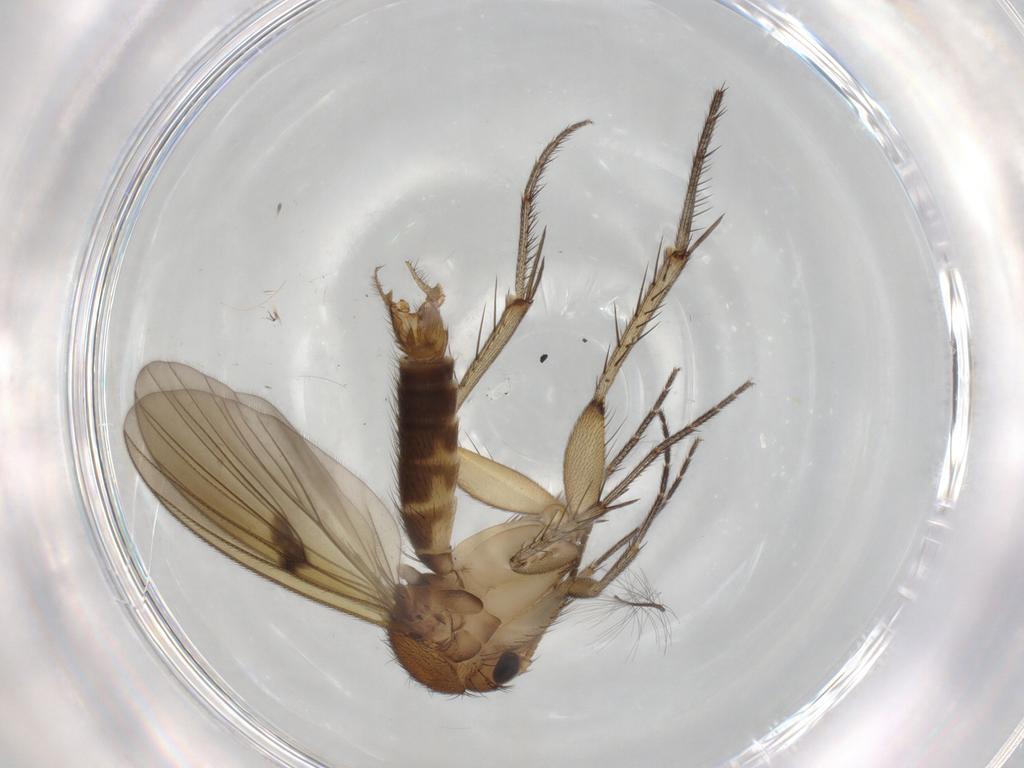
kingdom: Animalia
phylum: Arthropoda
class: Insecta
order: Diptera
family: Mycetophilidae
